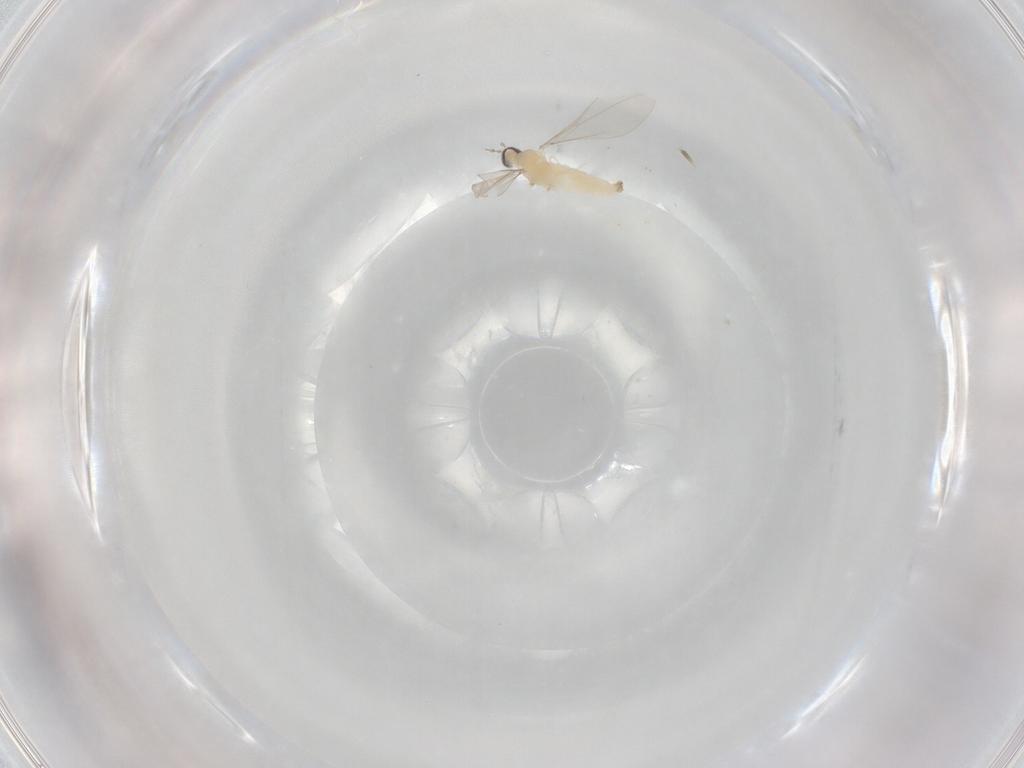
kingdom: Animalia
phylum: Arthropoda
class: Insecta
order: Diptera
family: Cecidomyiidae
